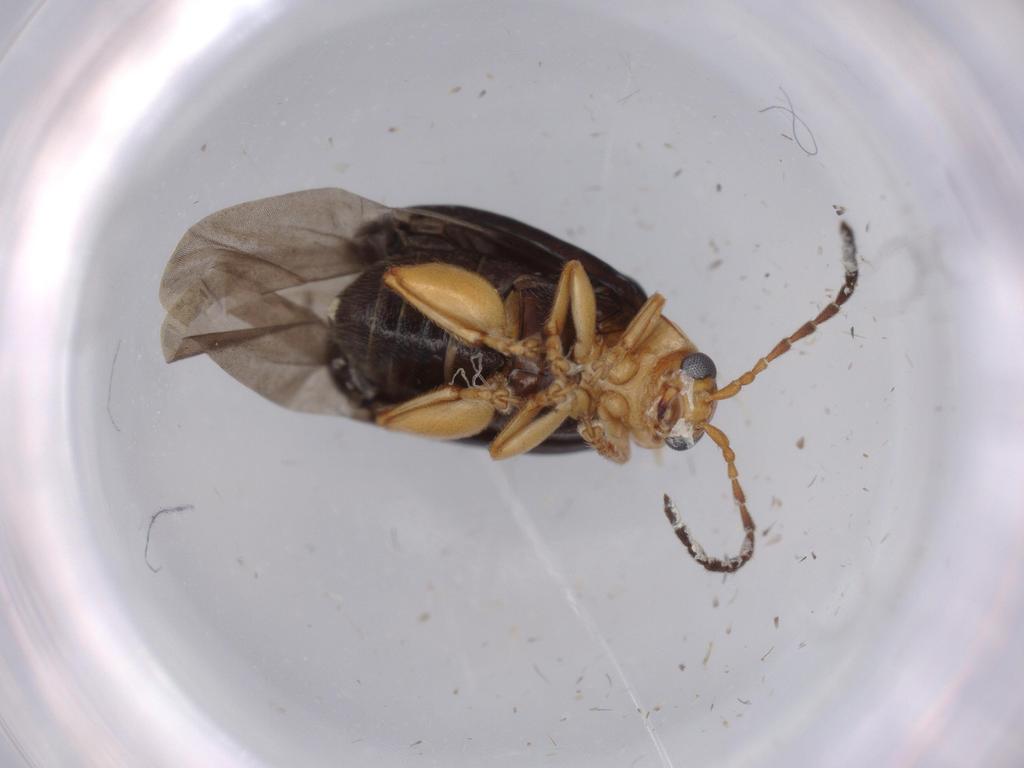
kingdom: Animalia
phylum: Arthropoda
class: Insecta
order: Coleoptera
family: Chrysomelidae
